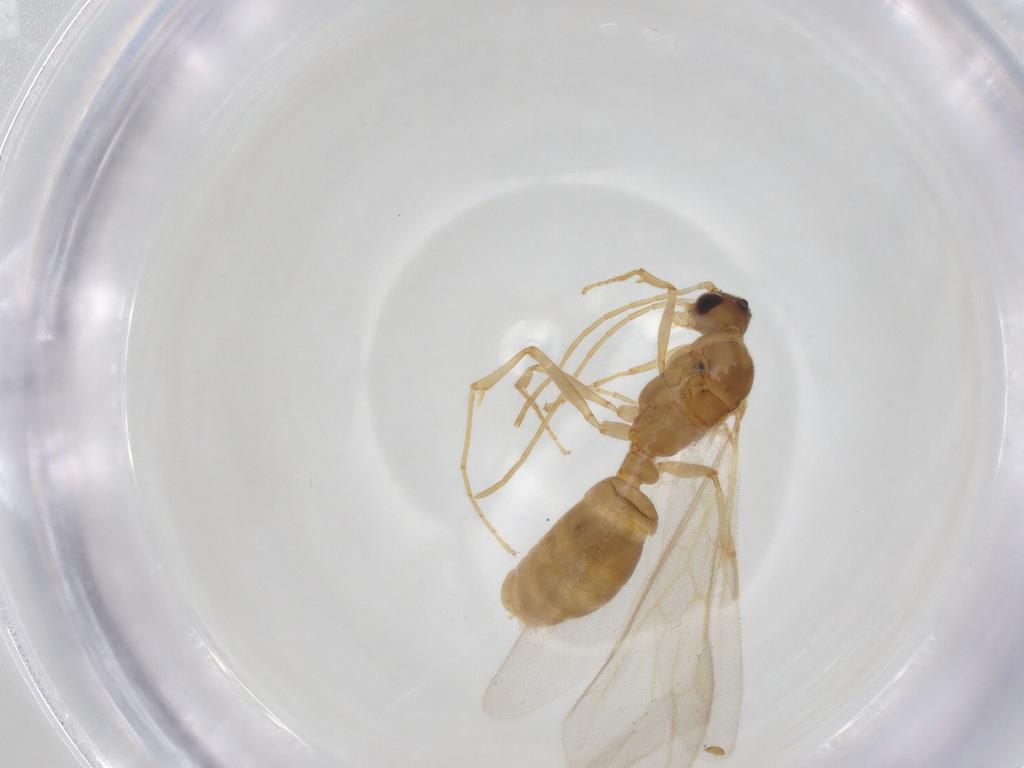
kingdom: Animalia
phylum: Arthropoda
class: Insecta
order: Hymenoptera
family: Formicidae
